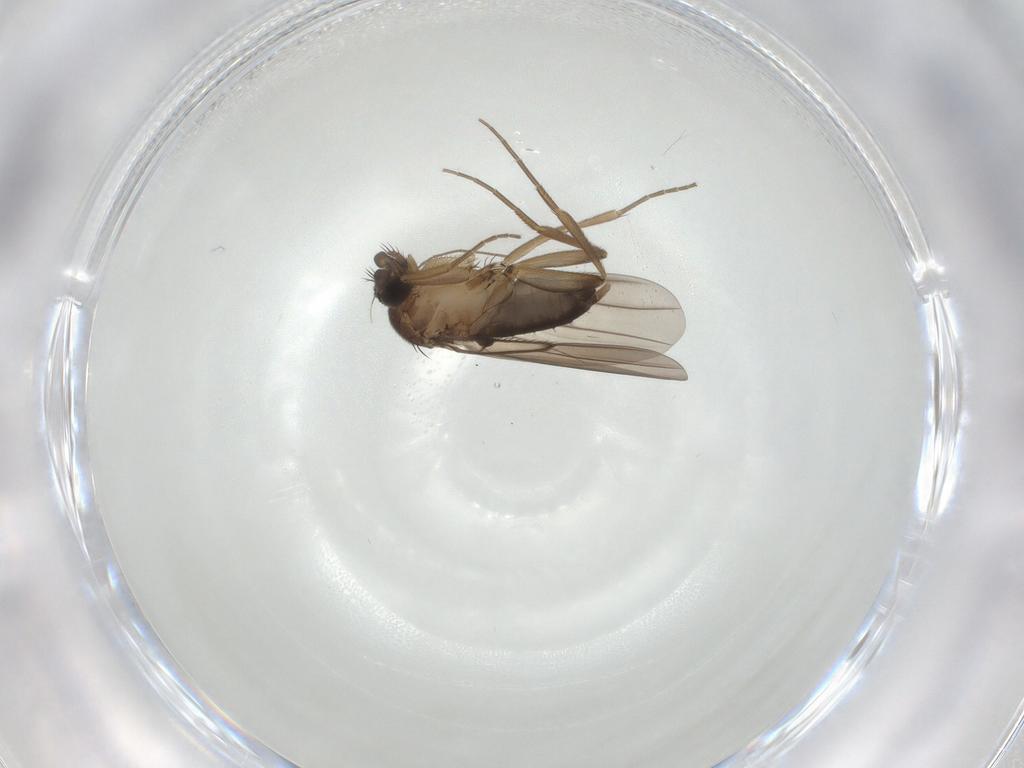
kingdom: Animalia
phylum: Arthropoda
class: Insecta
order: Diptera
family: Phoridae
